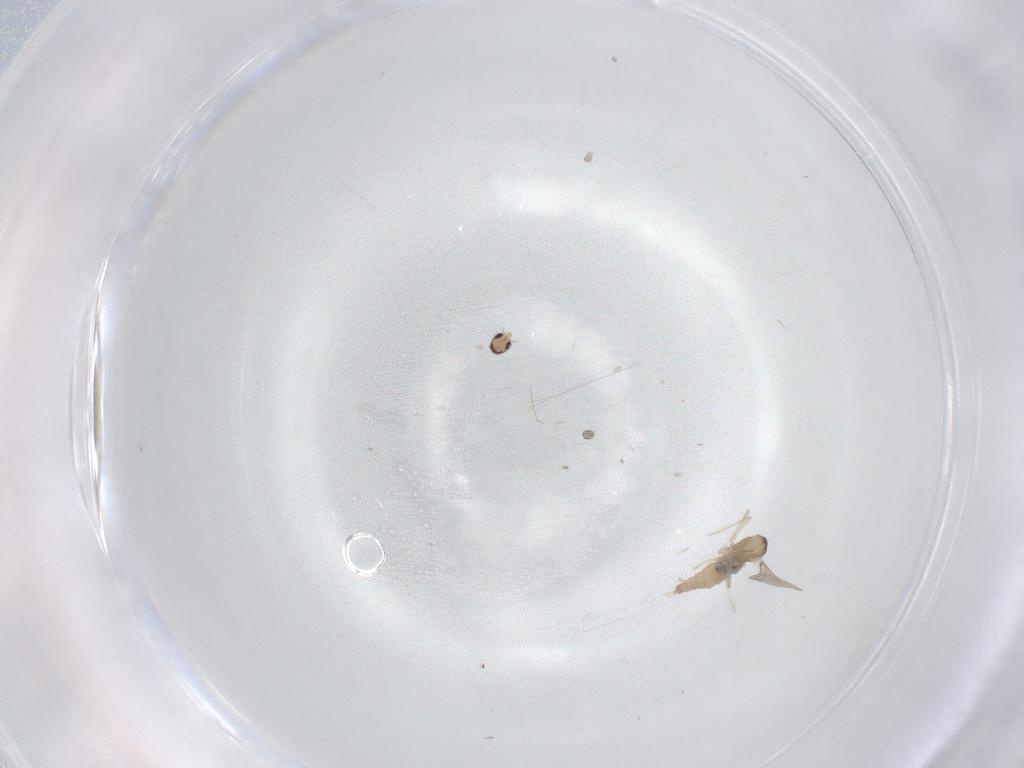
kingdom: Animalia
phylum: Arthropoda
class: Insecta
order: Diptera
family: Cecidomyiidae
